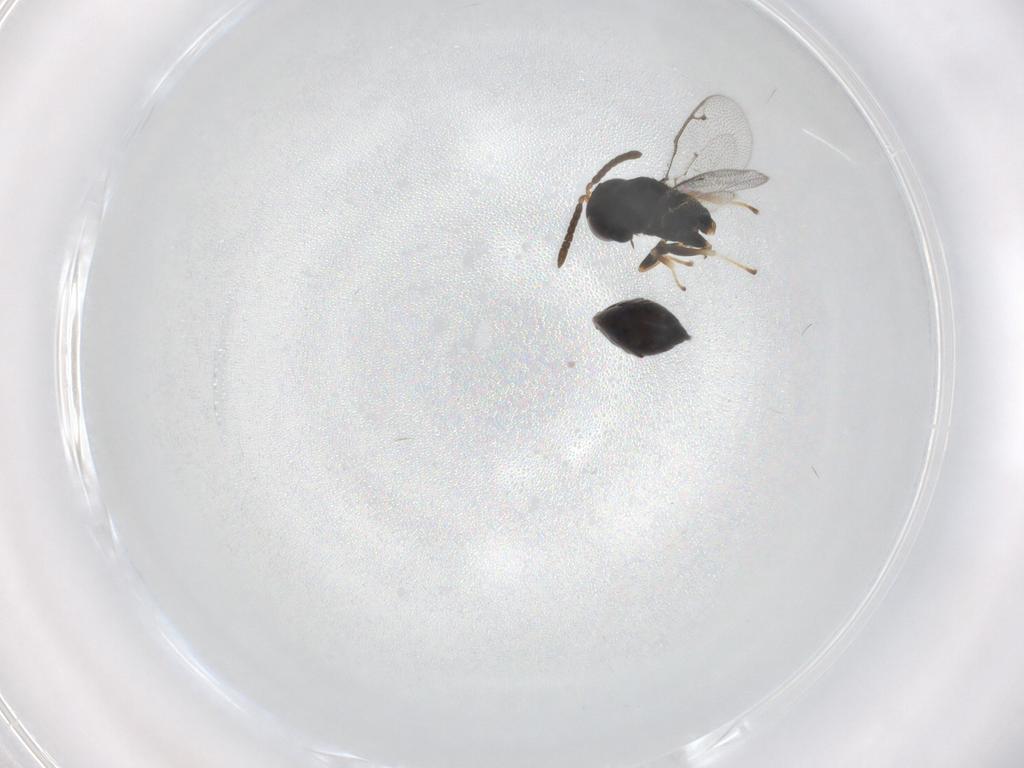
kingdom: Animalia
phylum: Arthropoda
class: Insecta
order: Hymenoptera
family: Pteromalidae
